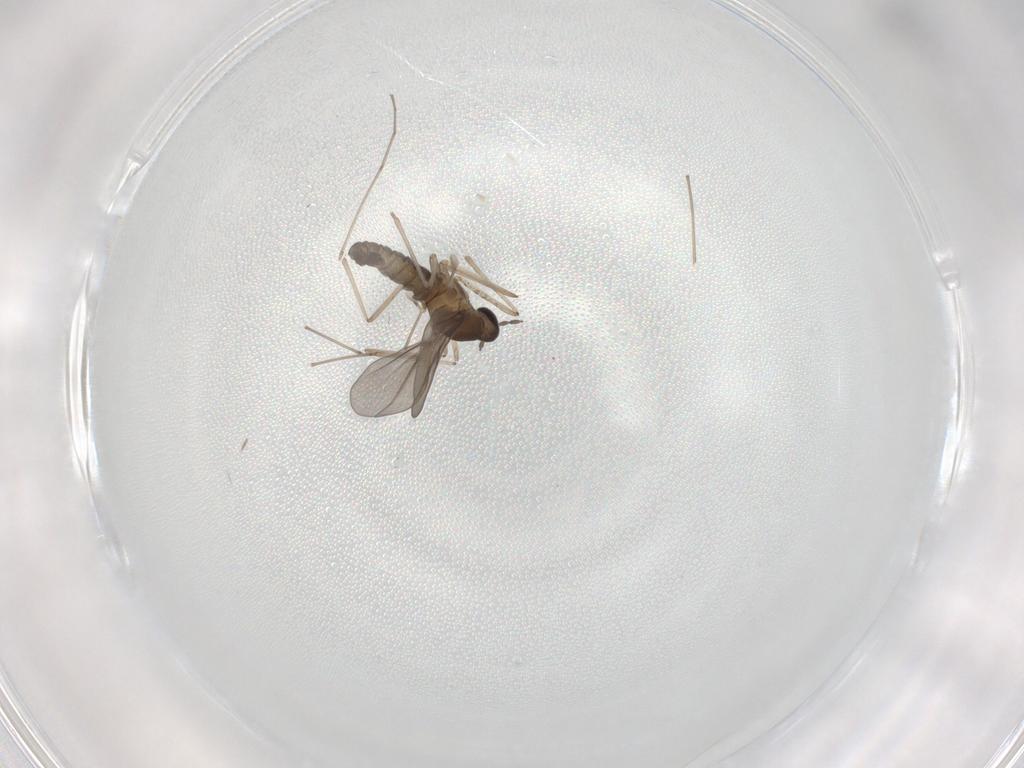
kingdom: Animalia
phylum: Arthropoda
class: Insecta
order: Diptera
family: Cecidomyiidae
